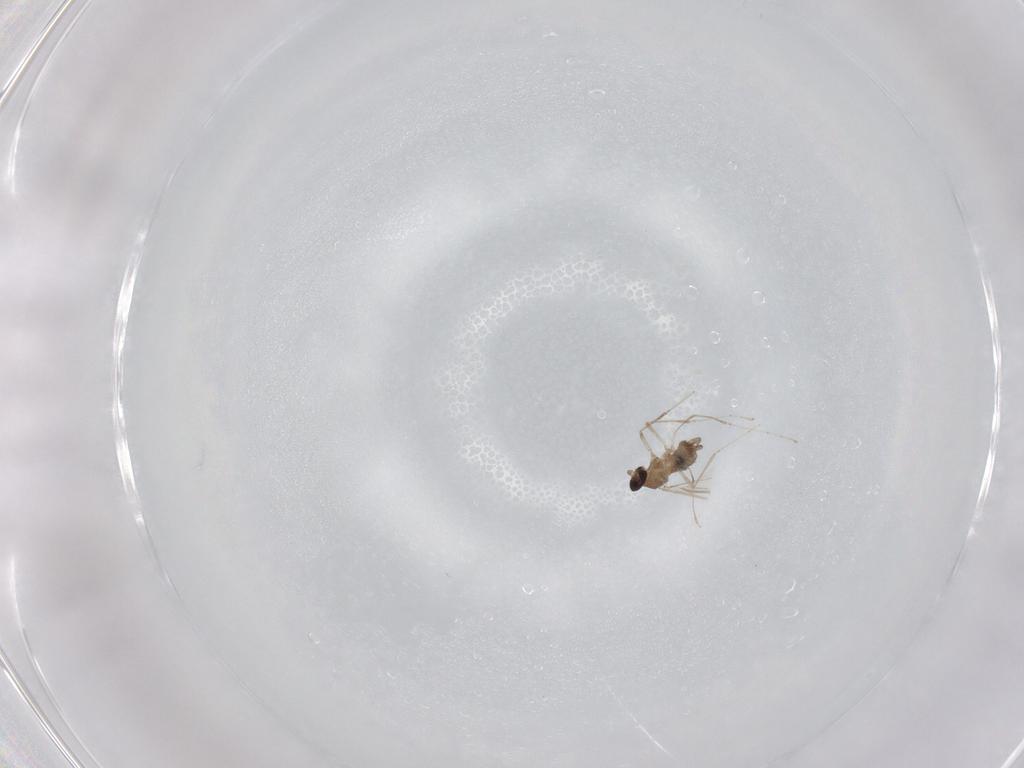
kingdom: Animalia
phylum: Arthropoda
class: Insecta
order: Diptera
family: Cecidomyiidae
